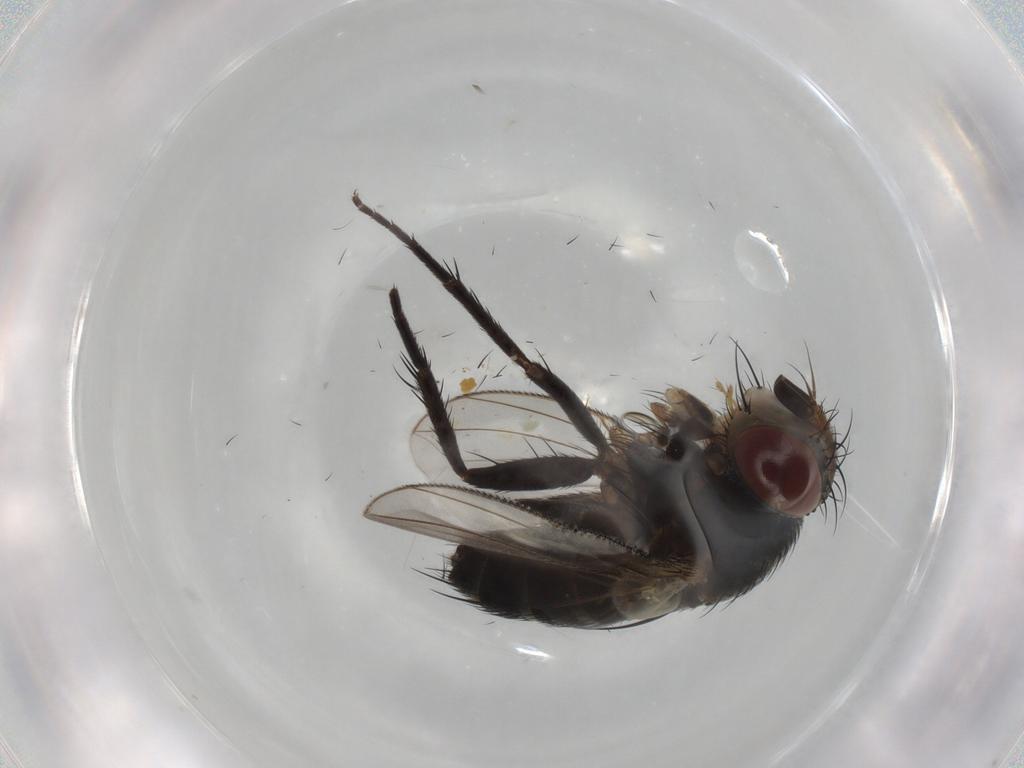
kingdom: Animalia
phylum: Arthropoda
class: Insecta
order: Diptera
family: Tachinidae
